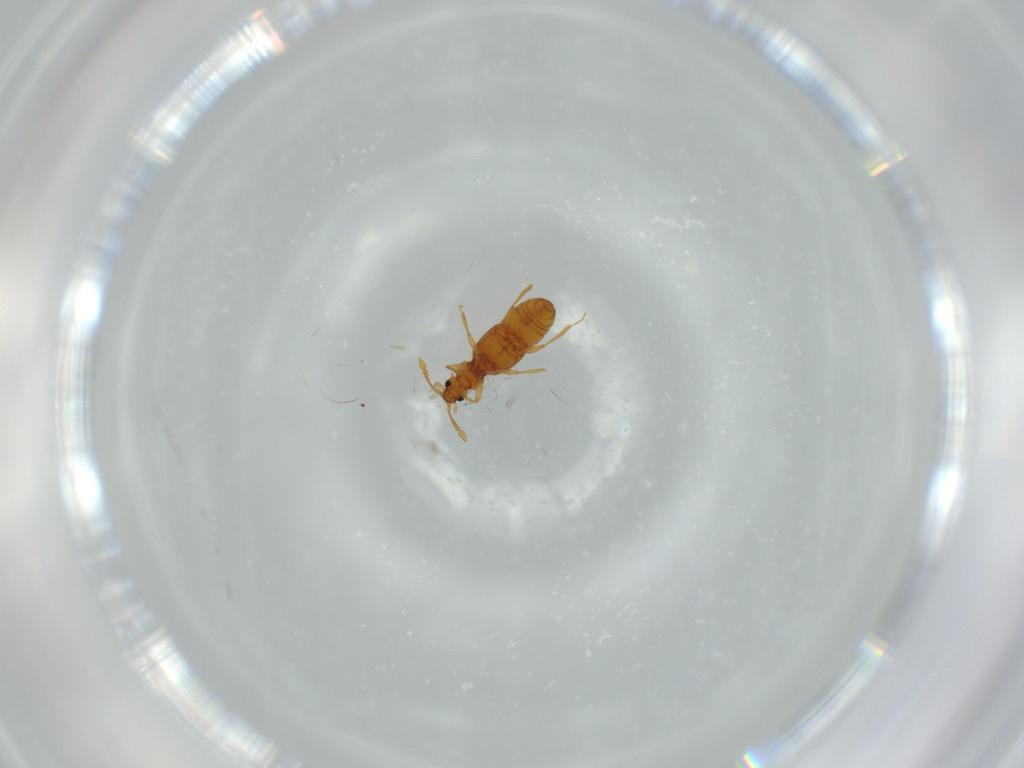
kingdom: Animalia
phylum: Arthropoda
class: Insecta
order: Coleoptera
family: Staphylinidae
